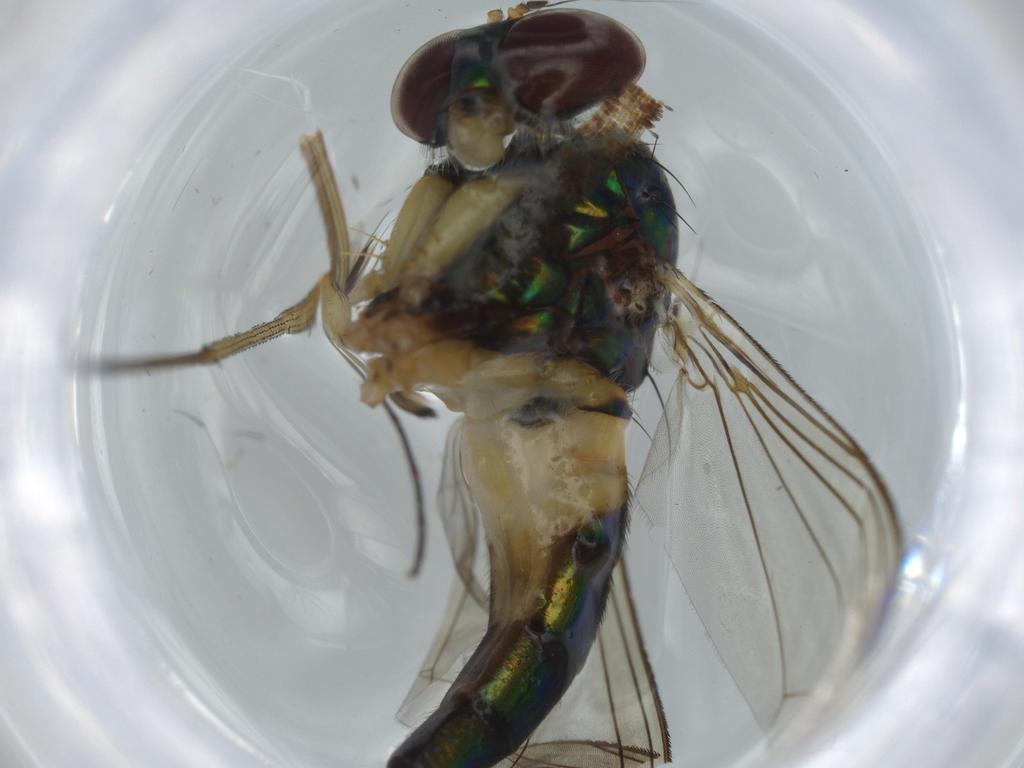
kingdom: Animalia
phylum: Arthropoda
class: Insecta
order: Diptera
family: Dolichopodidae
